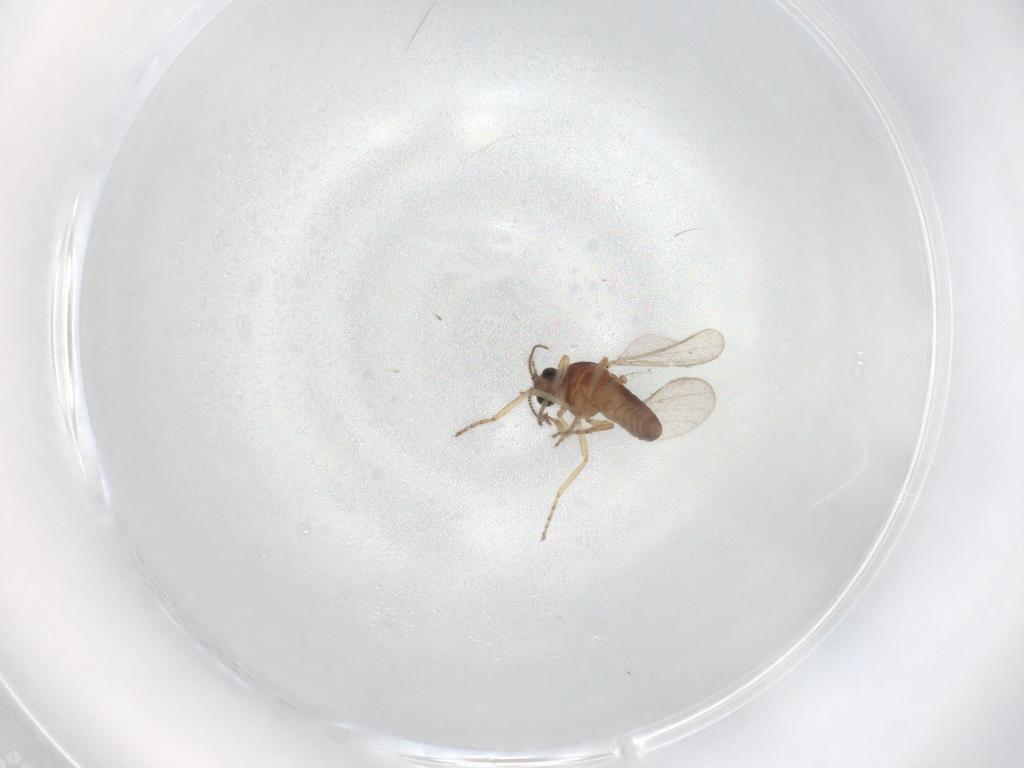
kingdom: Animalia
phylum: Arthropoda
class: Insecta
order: Diptera
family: Ceratopogonidae
